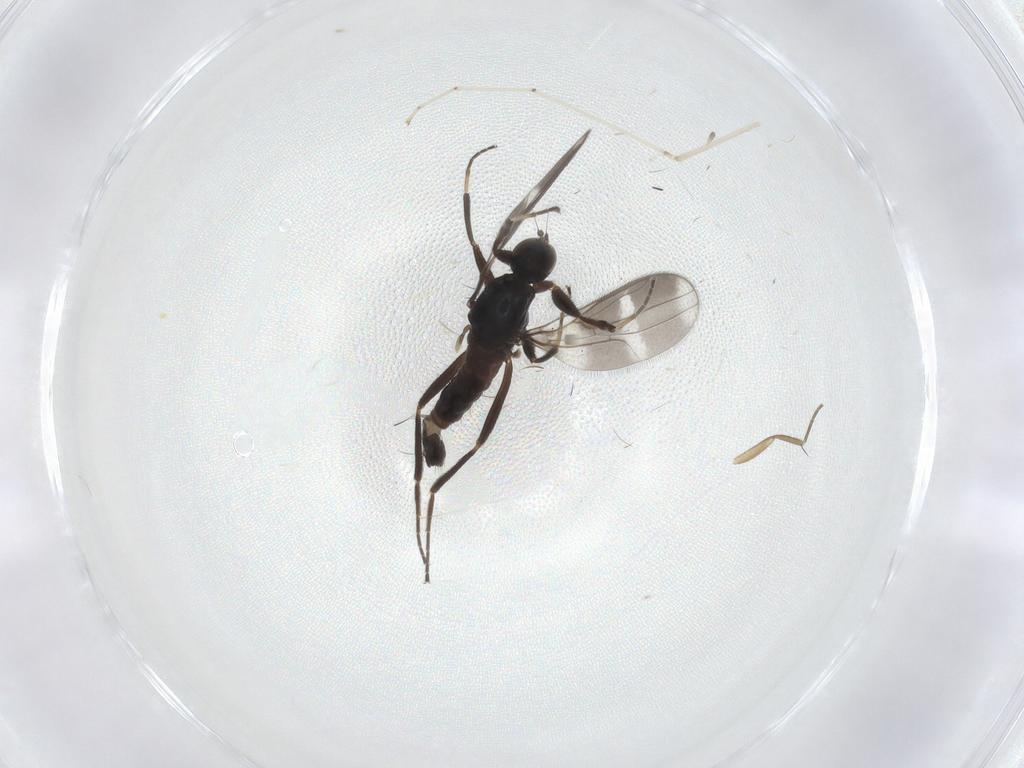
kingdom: Animalia
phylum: Arthropoda
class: Insecta
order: Diptera
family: Hybotidae
